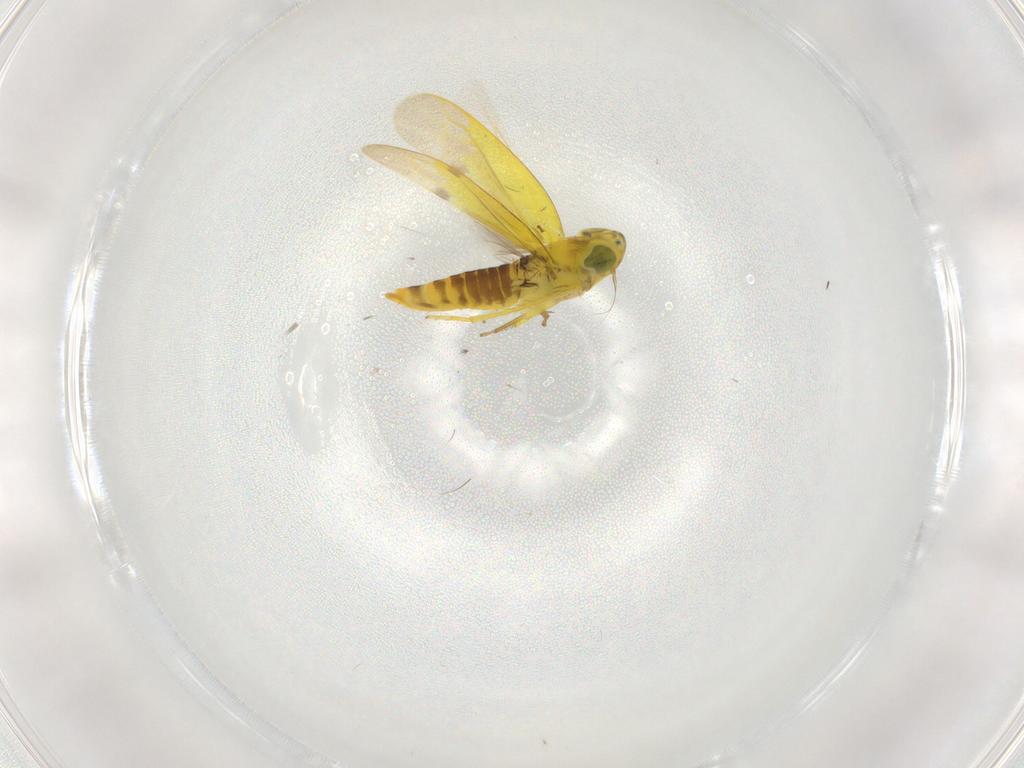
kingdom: Animalia
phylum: Arthropoda
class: Insecta
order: Hemiptera
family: Cicadellidae
